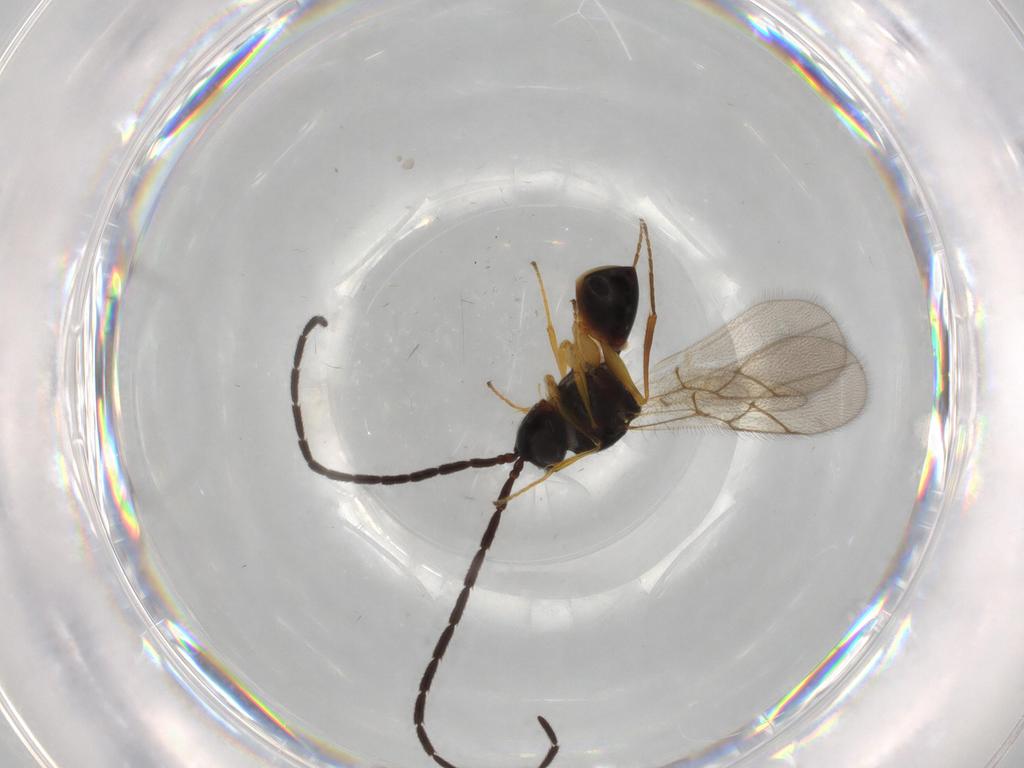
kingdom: Animalia
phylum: Arthropoda
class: Insecta
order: Hymenoptera
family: Figitidae
